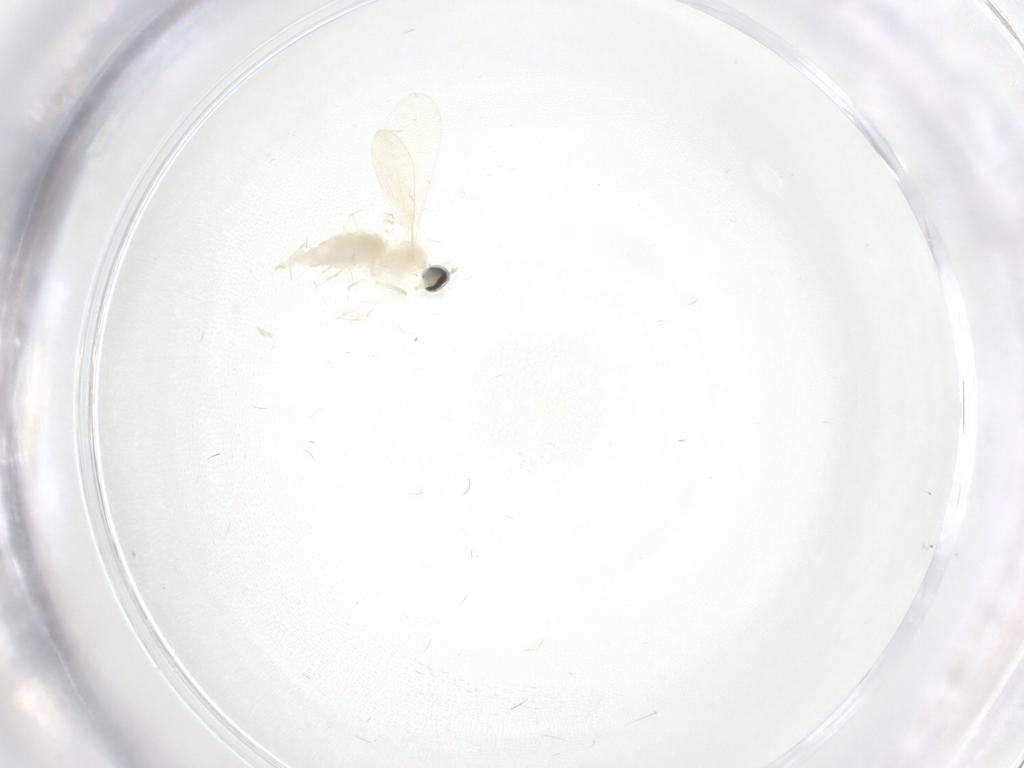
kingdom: Animalia
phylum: Arthropoda
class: Insecta
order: Diptera
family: Cecidomyiidae
